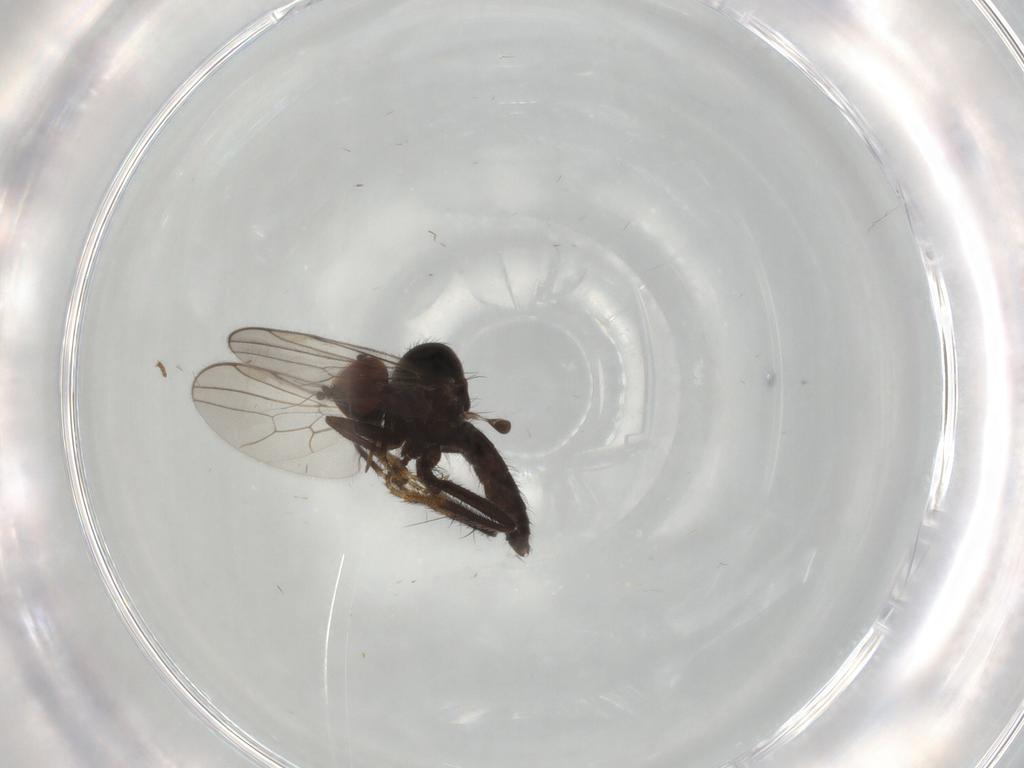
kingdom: Animalia
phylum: Arthropoda
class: Insecta
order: Diptera
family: Hybotidae
